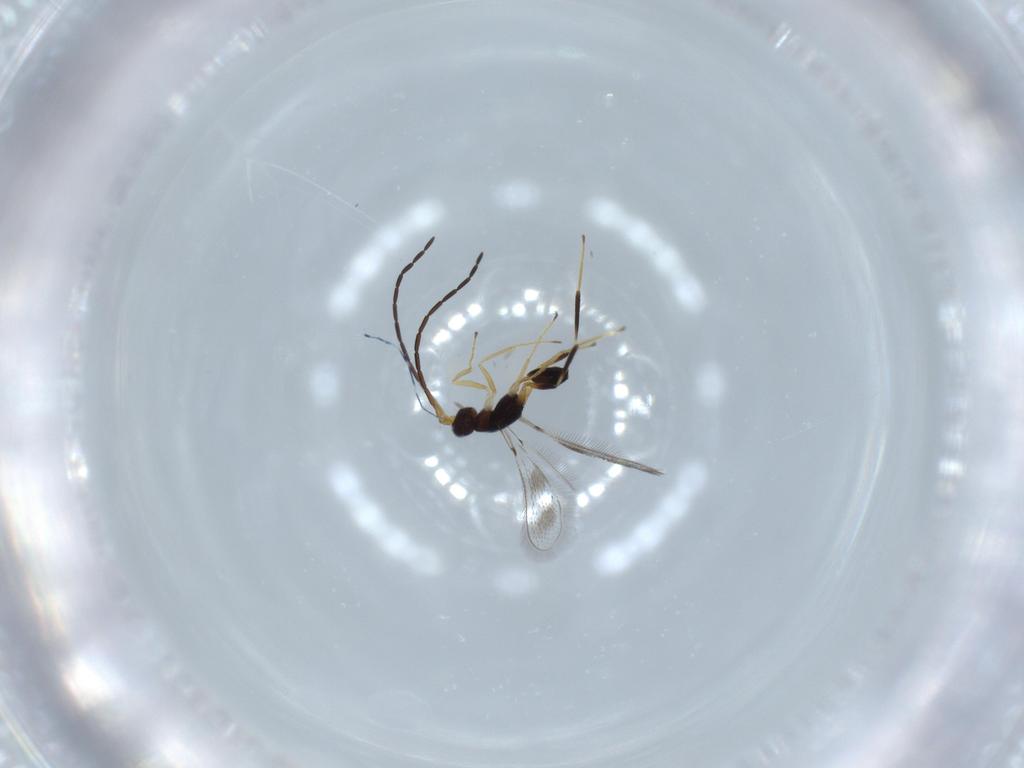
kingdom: Animalia
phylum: Arthropoda
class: Insecta
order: Hymenoptera
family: Mymaridae
